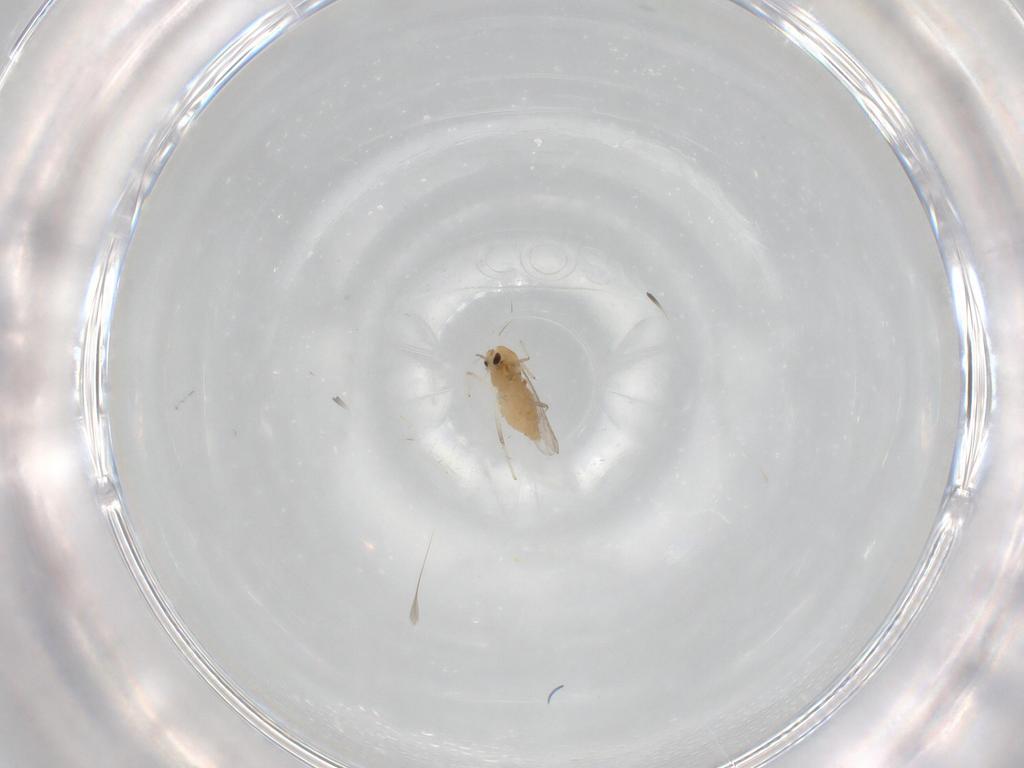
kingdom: Animalia
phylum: Arthropoda
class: Insecta
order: Diptera
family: Chironomidae
